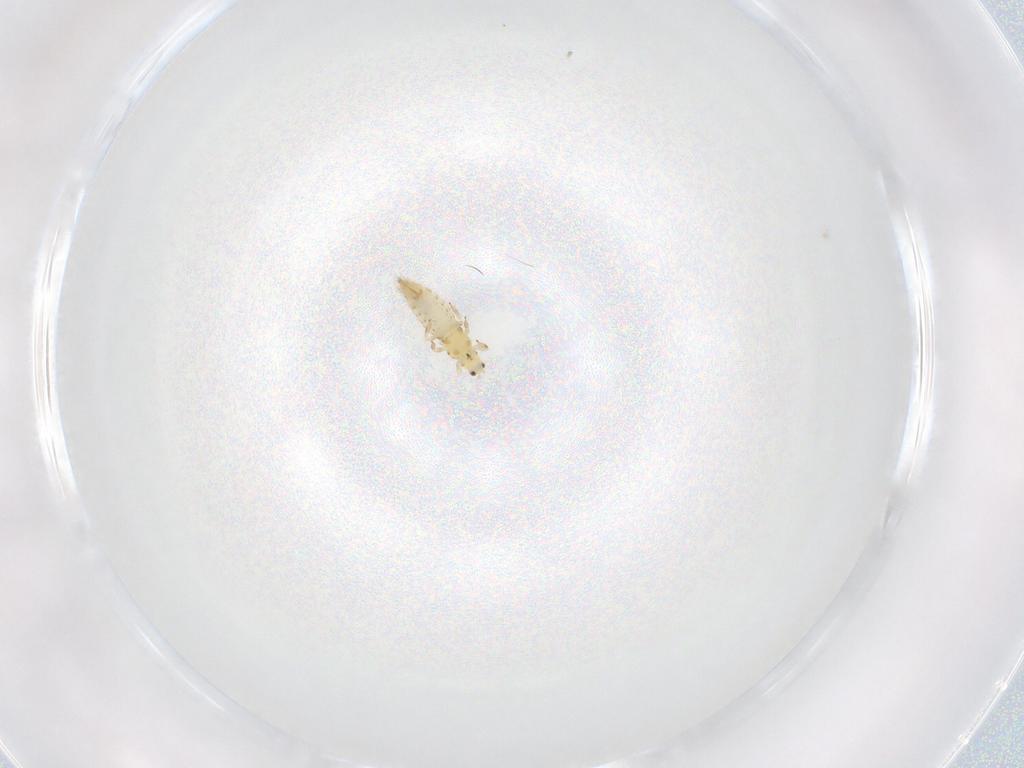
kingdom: Animalia
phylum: Arthropoda
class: Insecta
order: Thysanoptera
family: Thripidae
